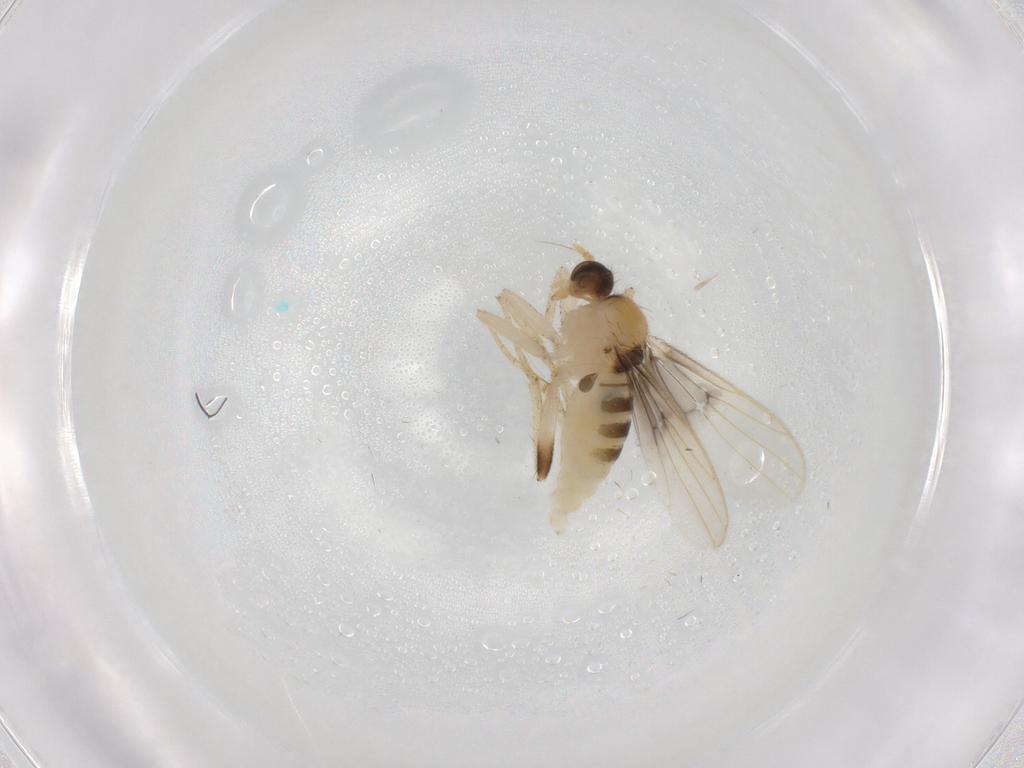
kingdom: Animalia
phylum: Arthropoda
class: Insecta
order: Diptera
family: Hybotidae
